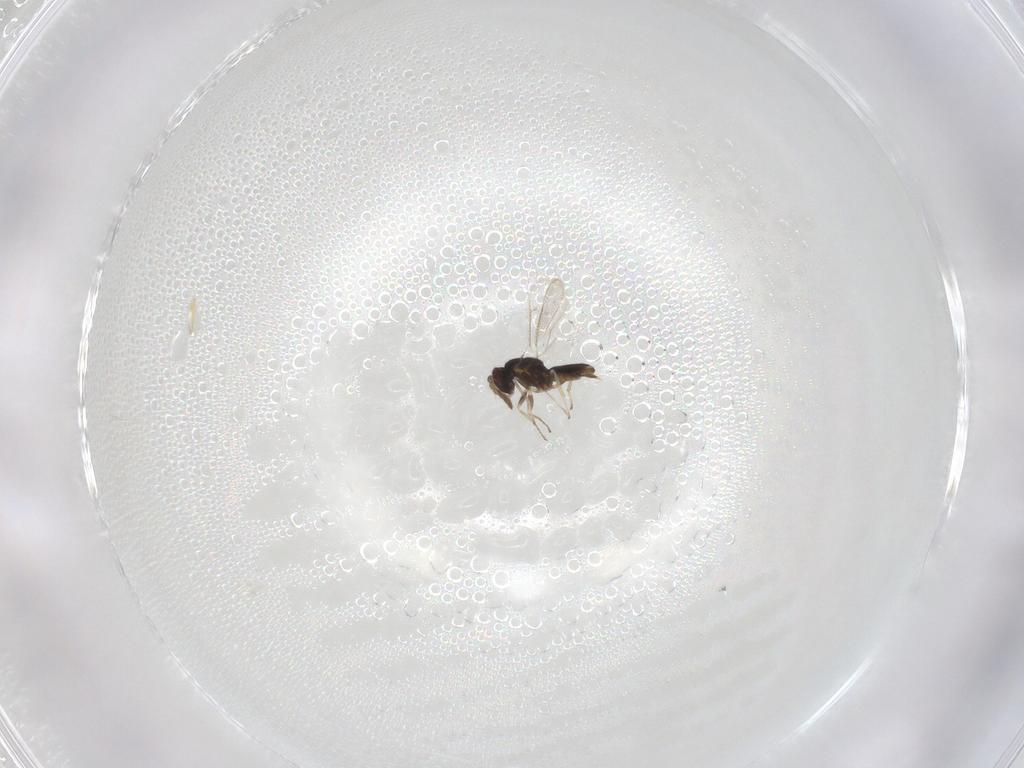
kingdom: Animalia
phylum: Arthropoda
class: Insecta
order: Hymenoptera
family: Eulophidae
